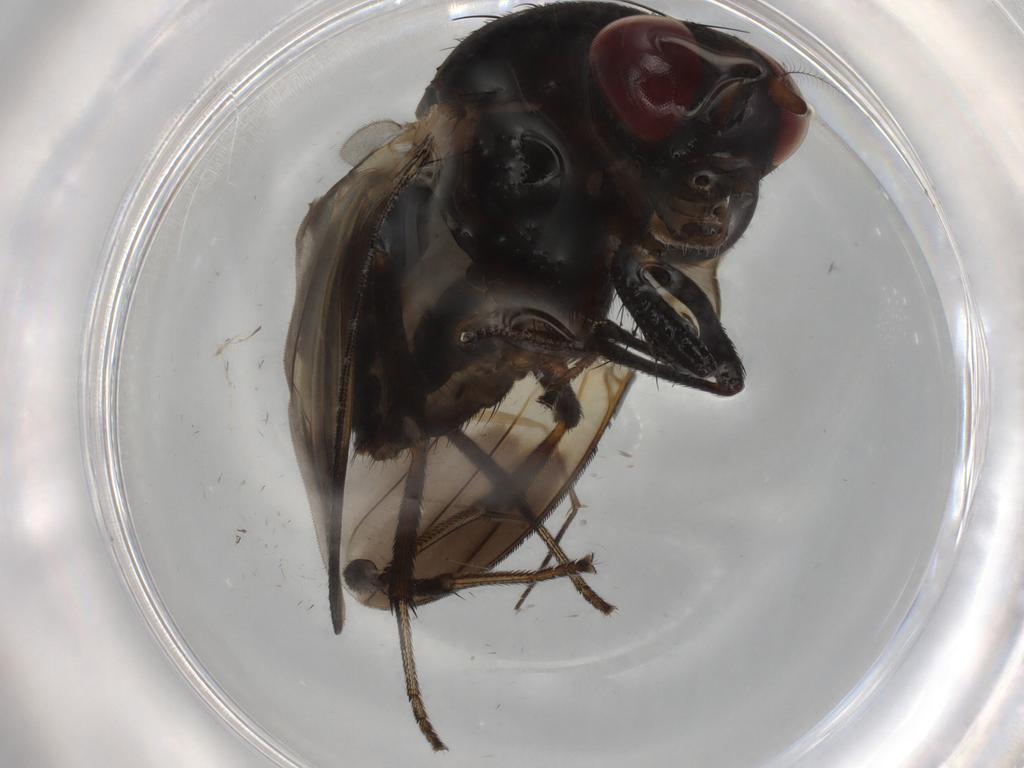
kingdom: Animalia
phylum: Arthropoda
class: Insecta
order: Diptera
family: Lauxaniidae
